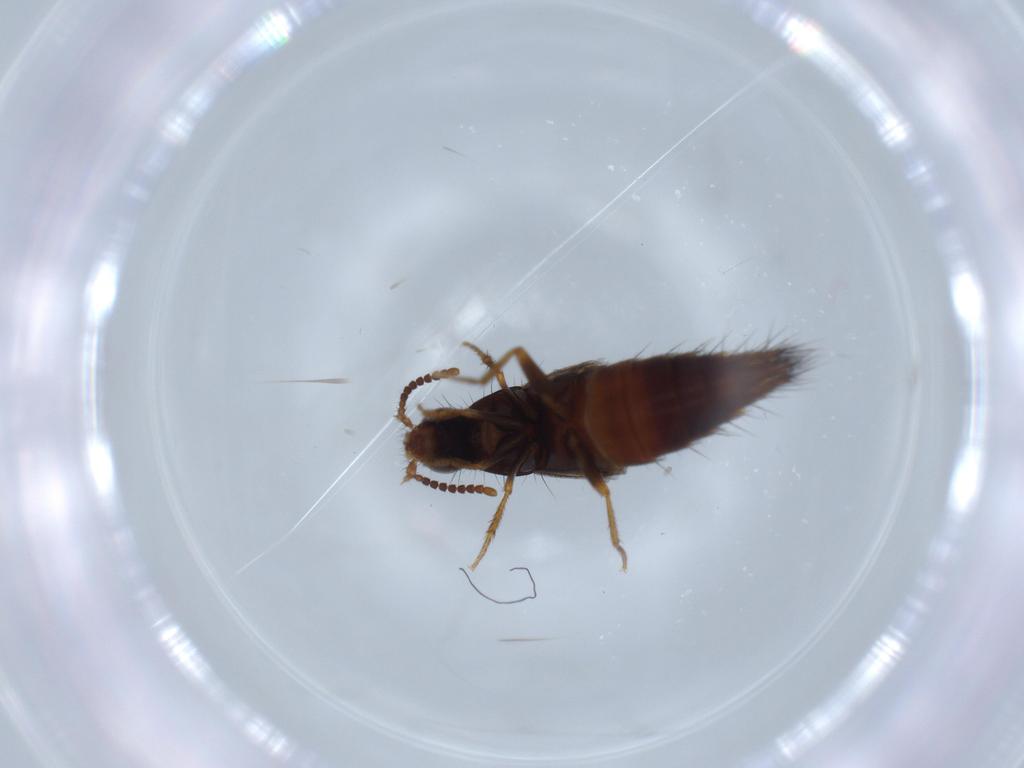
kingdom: Animalia
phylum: Arthropoda
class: Insecta
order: Coleoptera
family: Staphylinidae
